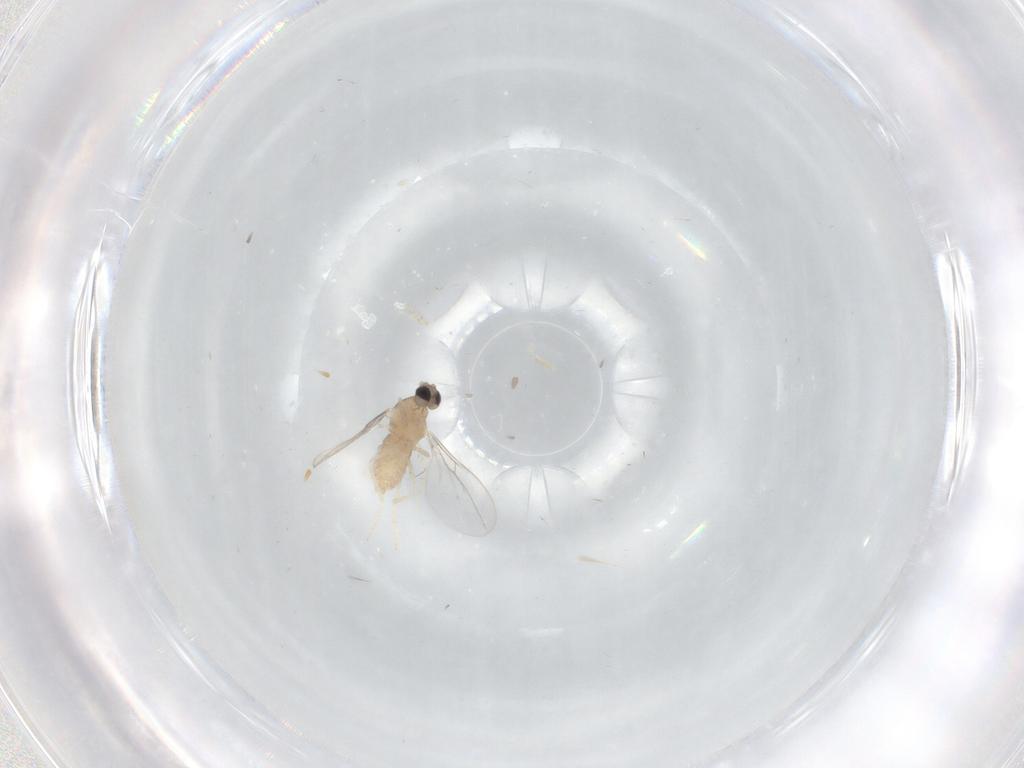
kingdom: Animalia
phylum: Arthropoda
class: Insecta
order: Diptera
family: Cecidomyiidae
